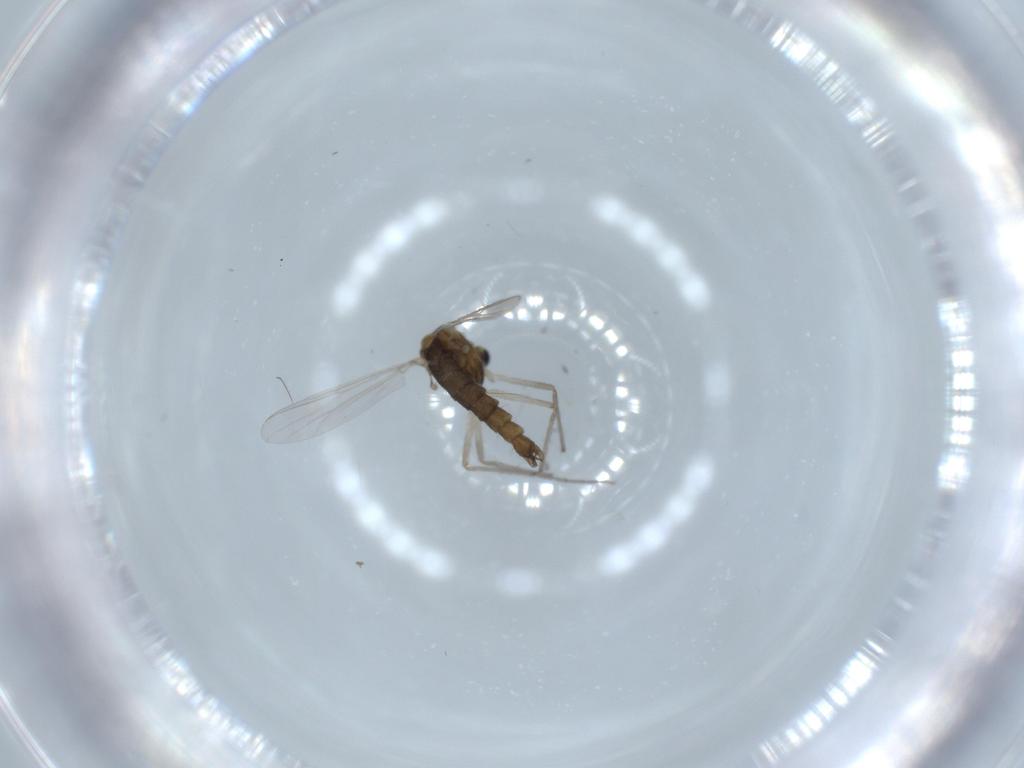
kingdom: Animalia
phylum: Arthropoda
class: Insecta
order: Diptera
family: Chironomidae
